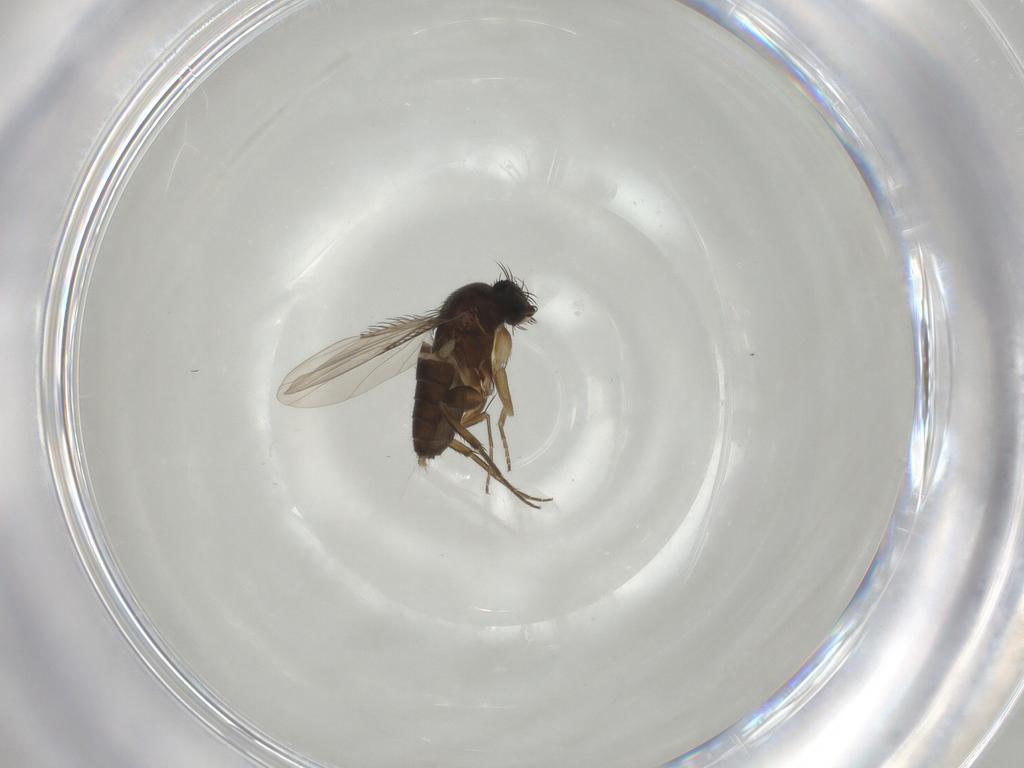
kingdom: Animalia
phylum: Arthropoda
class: Insecta
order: Diptera
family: Phoridae
